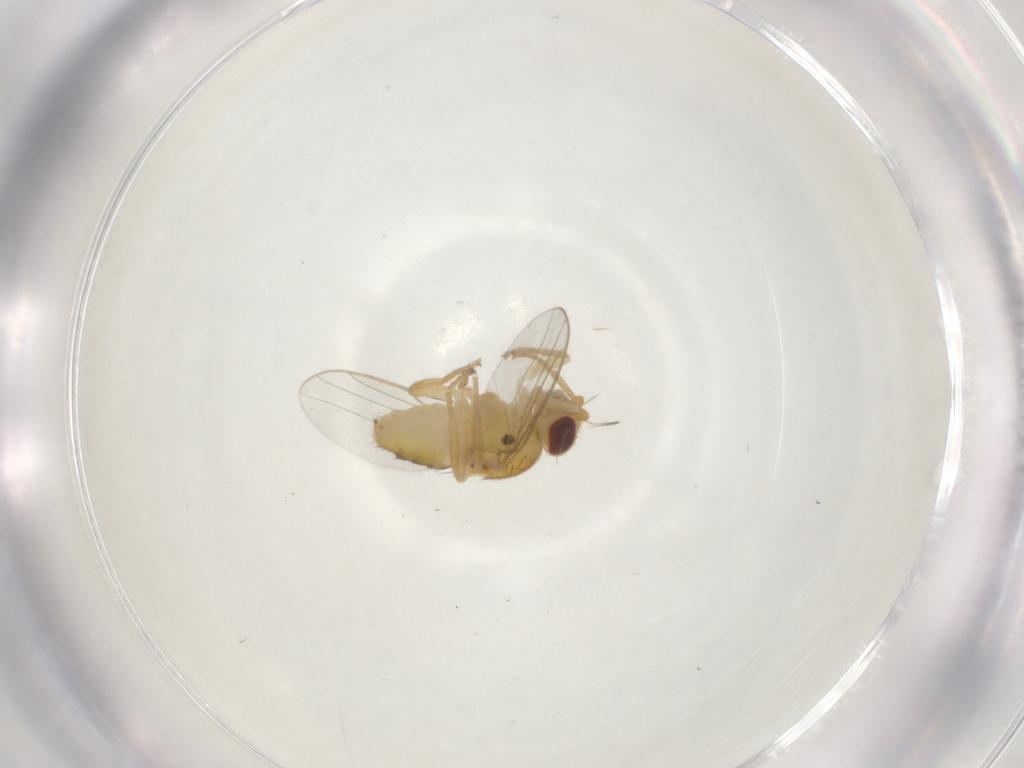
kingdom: Animalia
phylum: Arthropoda
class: Insecta
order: Diptera
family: Chloropidae
